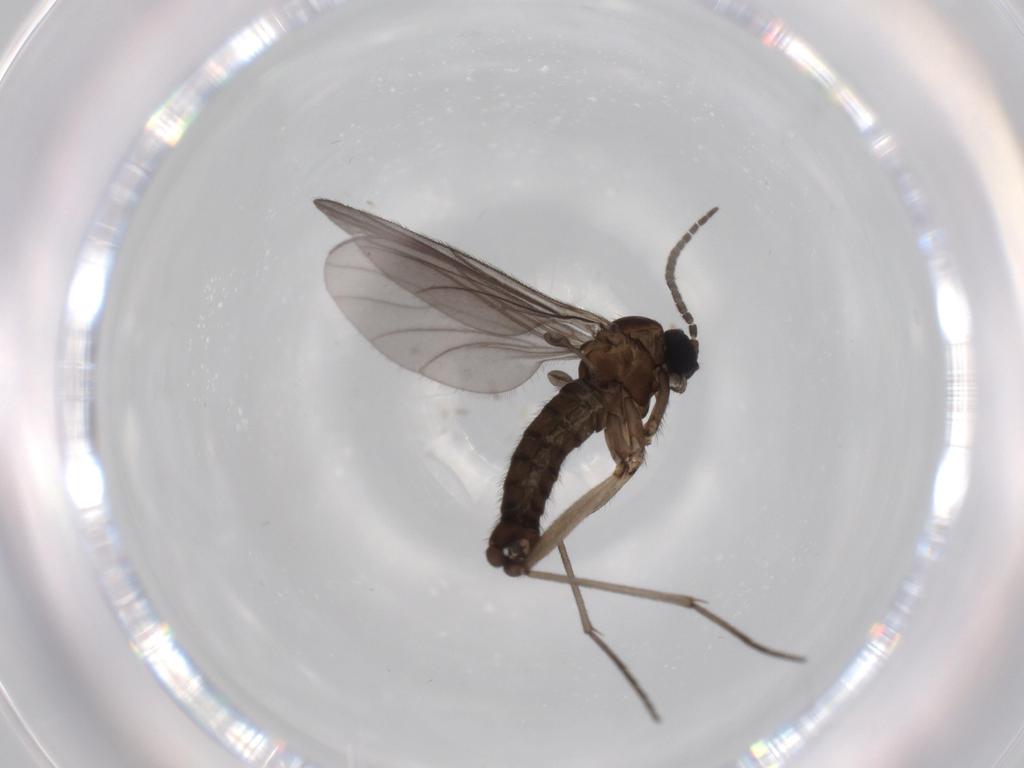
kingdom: Animalia
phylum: Arthropoda
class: Insecta
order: Diptera
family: Sciaridae
